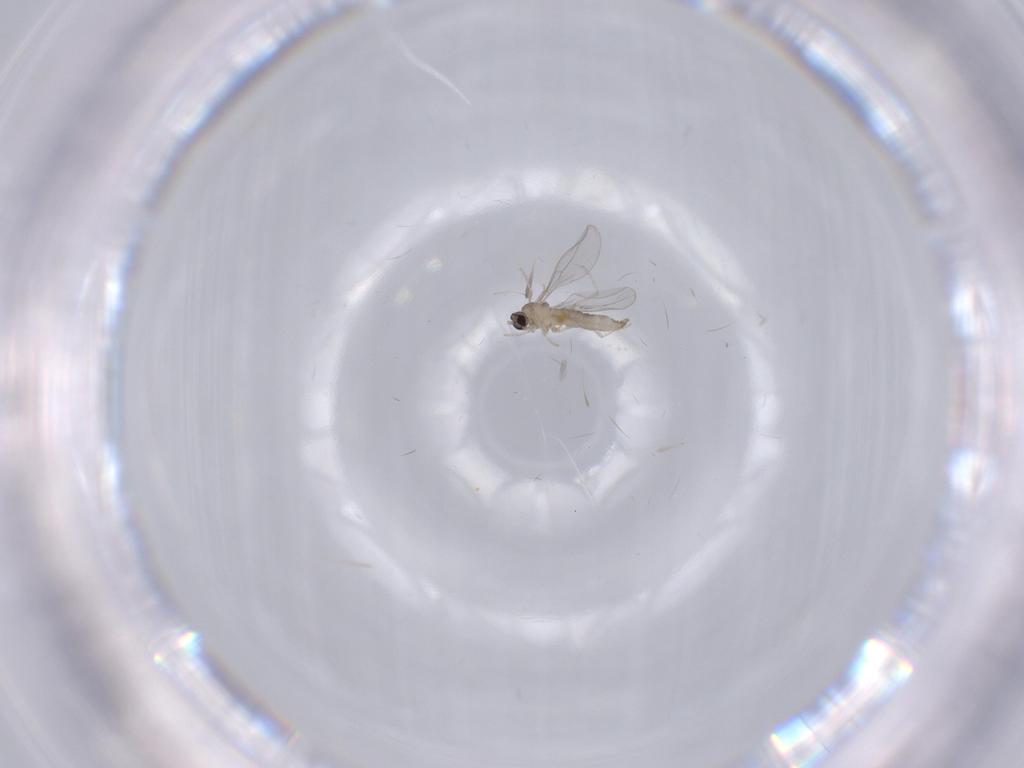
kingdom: Animalia
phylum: Arthropoda
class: Insecta
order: Diptera
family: Cecidomyiidae
